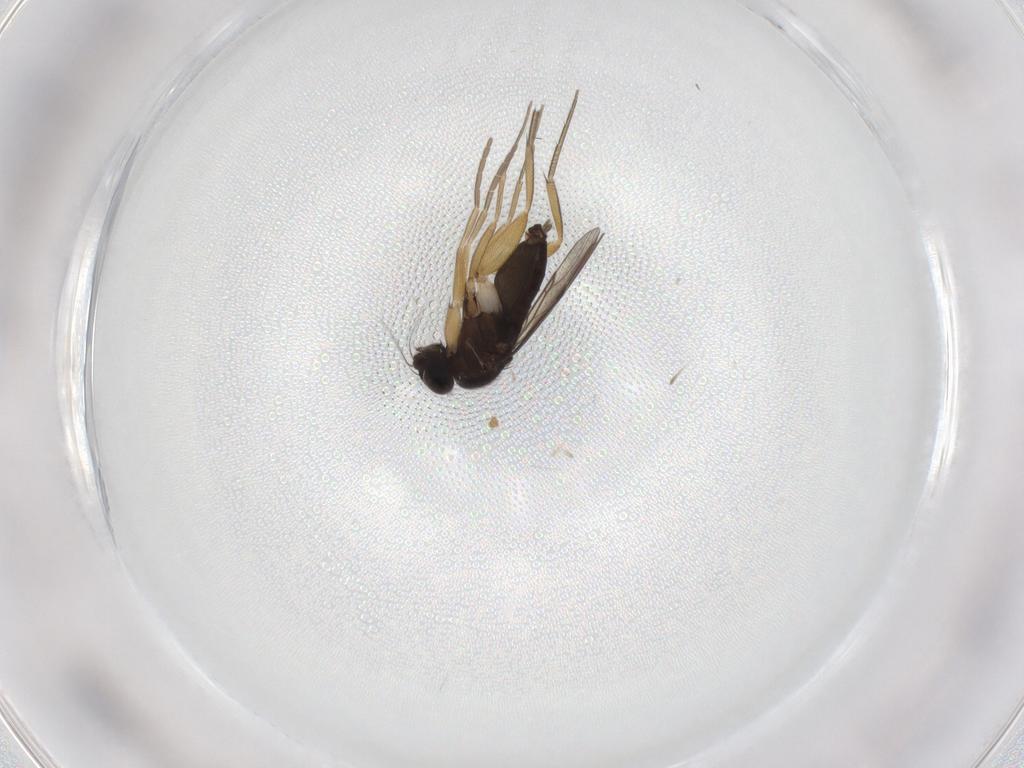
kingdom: Animalia
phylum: Arthropoda
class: Insecta
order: Diptera
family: Phoridae
